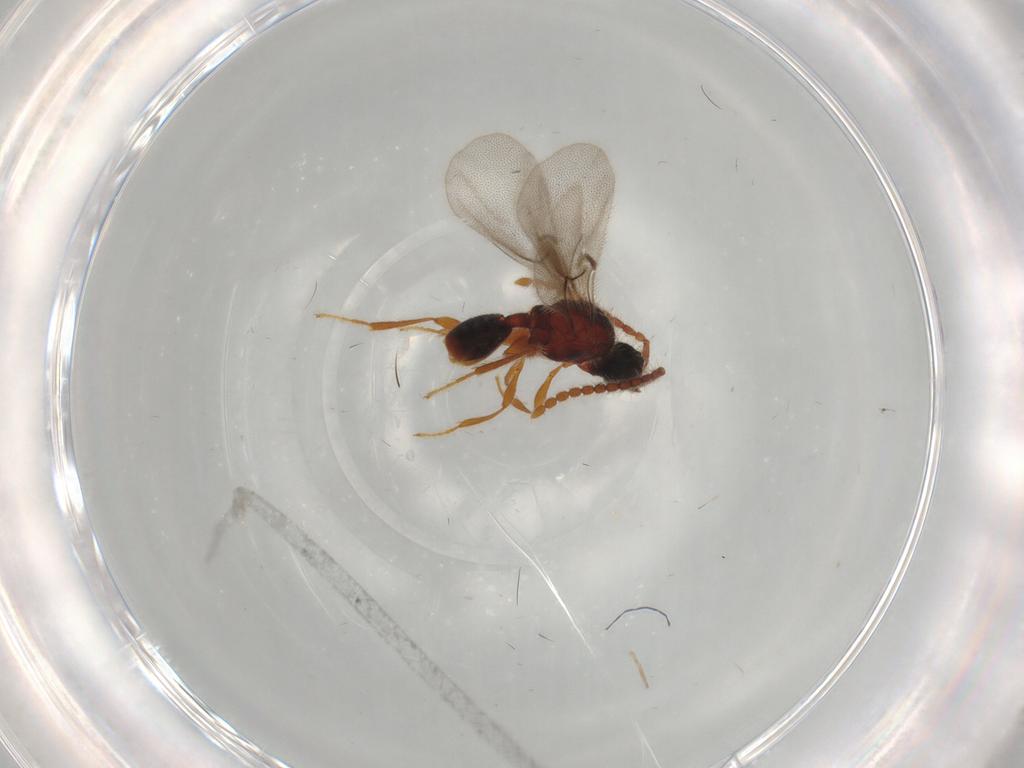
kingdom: Animalia
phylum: Arthropoda
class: Insecta
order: Hymenoptera
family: Diapriidae
